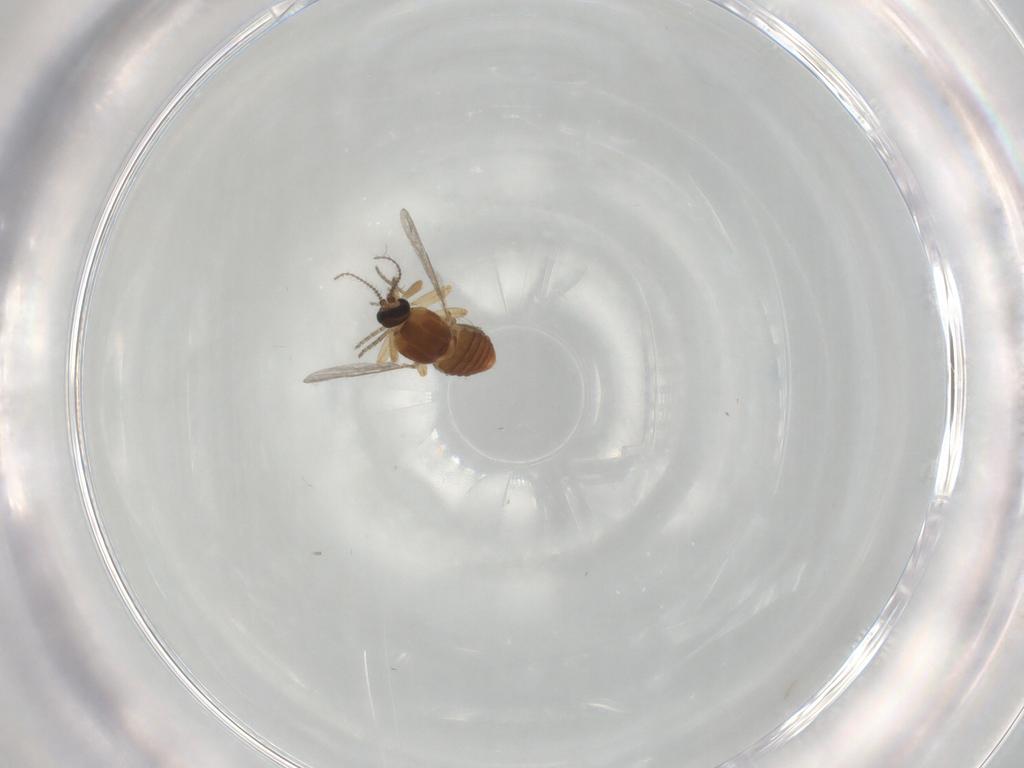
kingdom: Animalia
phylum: Arthropoda
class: Insecta
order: Diptera
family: Ceratopogonidae
